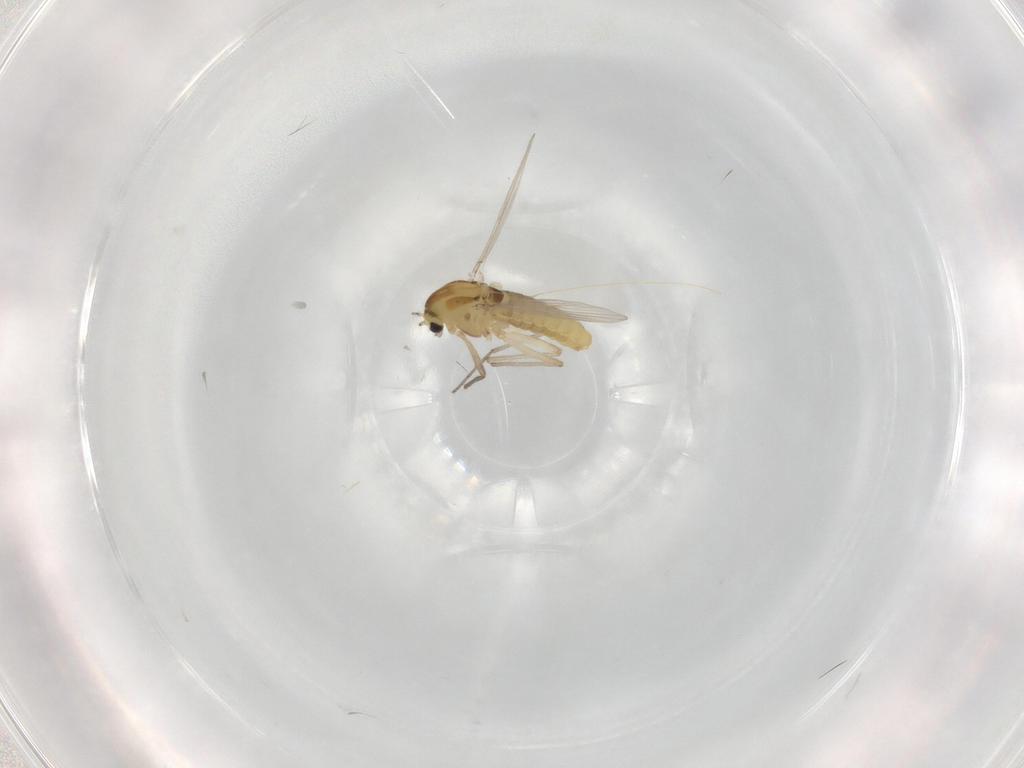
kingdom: Animalia
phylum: Arthropoda
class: Insecta
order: Diptera
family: Chironomidae
